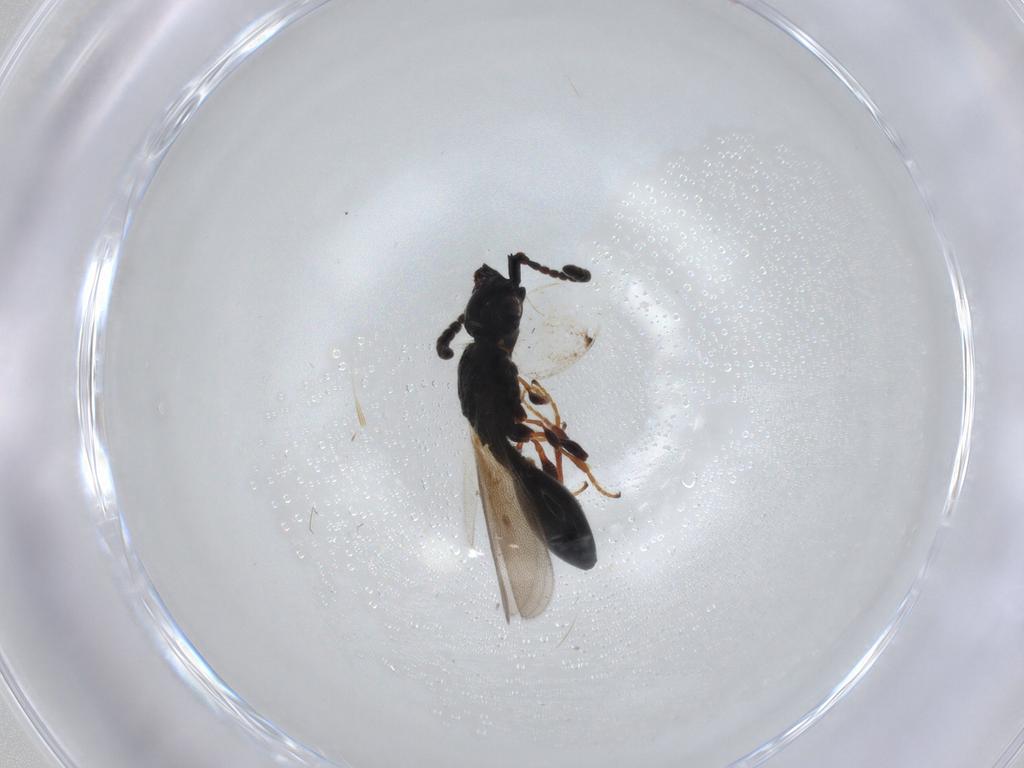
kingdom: Animalia
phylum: Arthropoda
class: Insecta
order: Hymenoptera
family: Diapriidae
